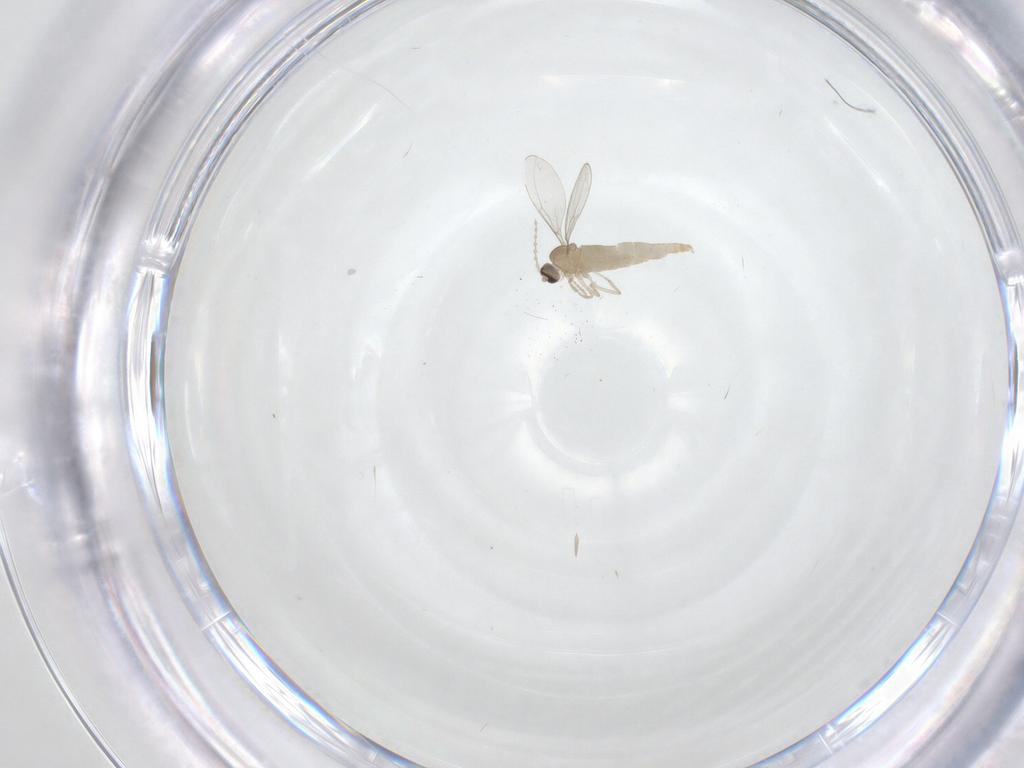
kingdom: Animalia
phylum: Arthropoda
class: Insecta
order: Diptera
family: Cecidomyiidae
